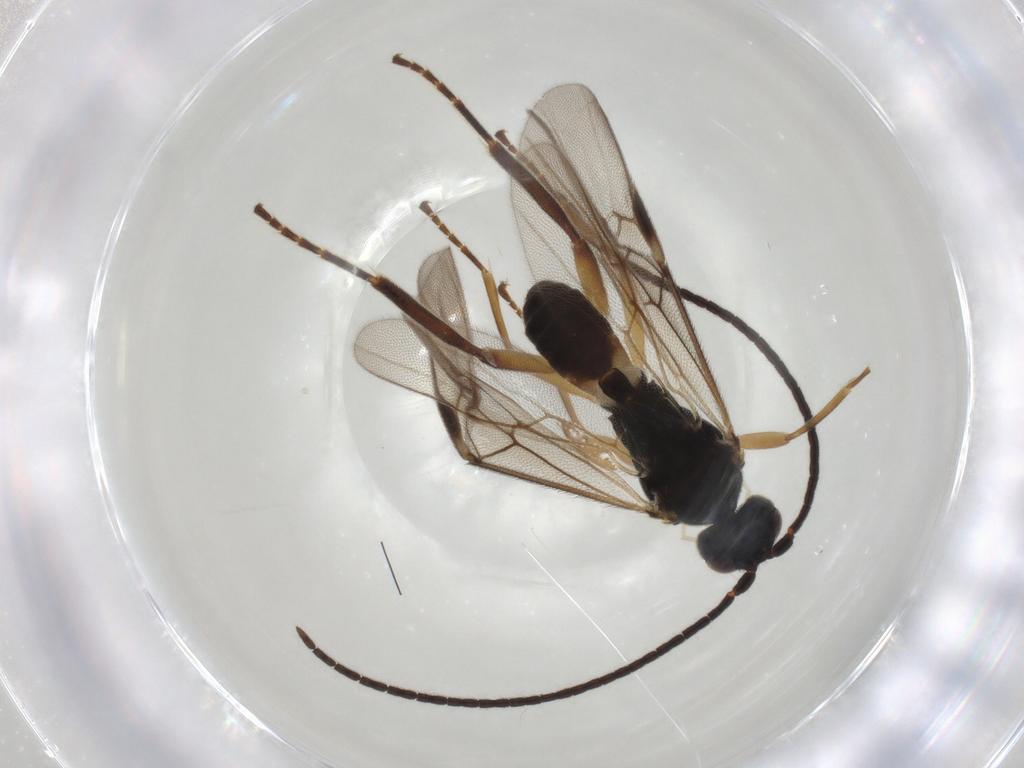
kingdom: Animalia
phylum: Arthropoda
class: Insecta
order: Hymenoptera
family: Braconidae
